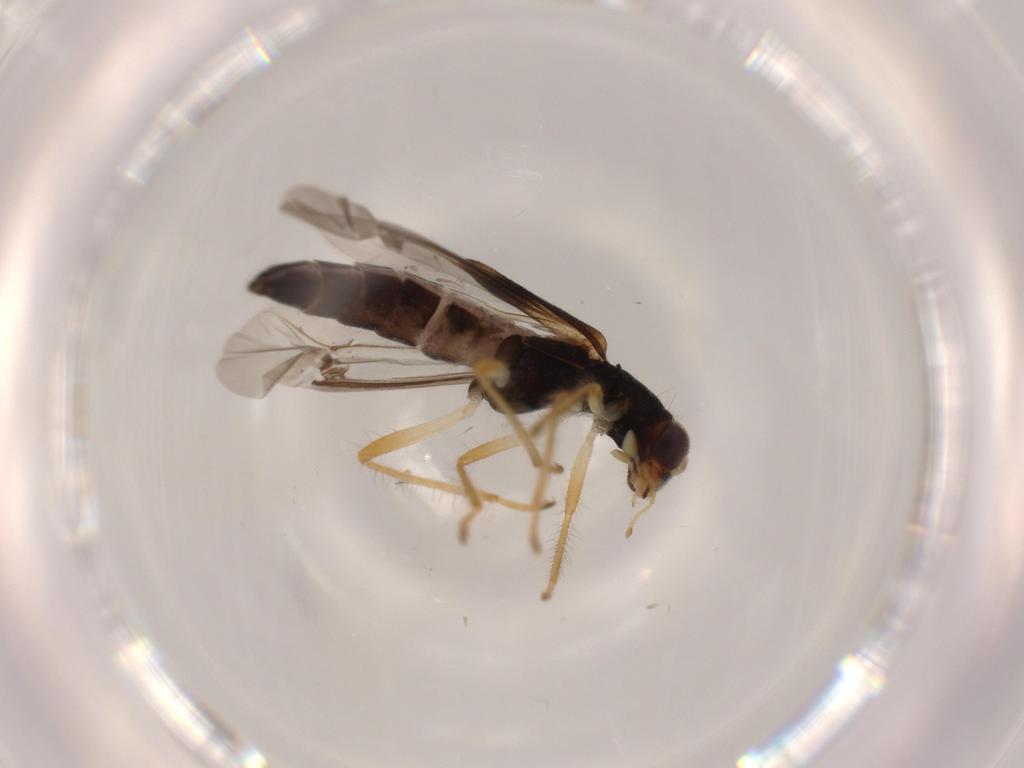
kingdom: Animalia
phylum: Arthropoda
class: Insecta
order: Coleoptera
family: Cleridae
